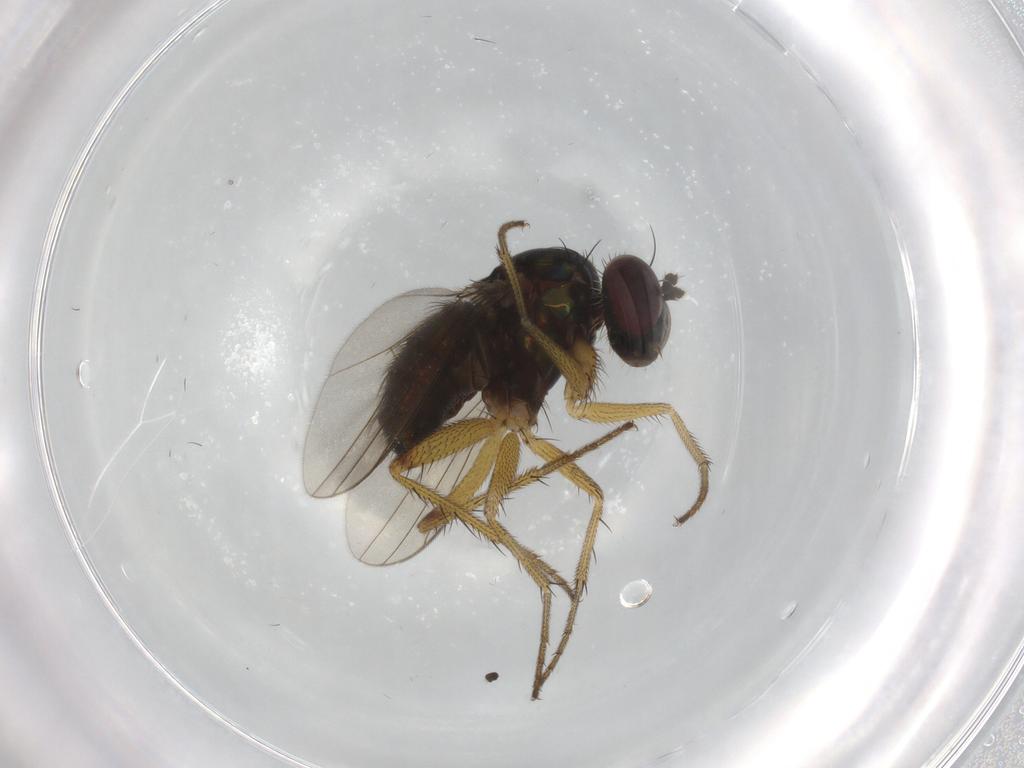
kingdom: Animalia
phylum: Arthropoda
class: Insecta
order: Diptera
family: Dolichopodidae
